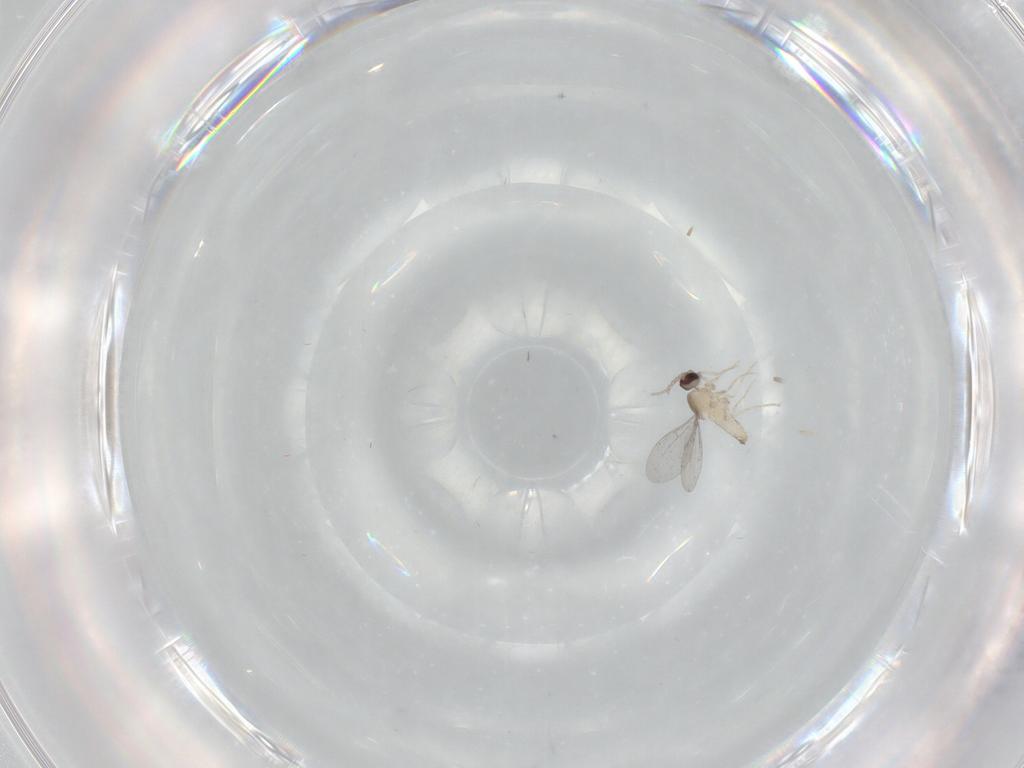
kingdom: Animalia
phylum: Arthropoda
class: Insecta
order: Diptera
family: Cecidomyiidae
